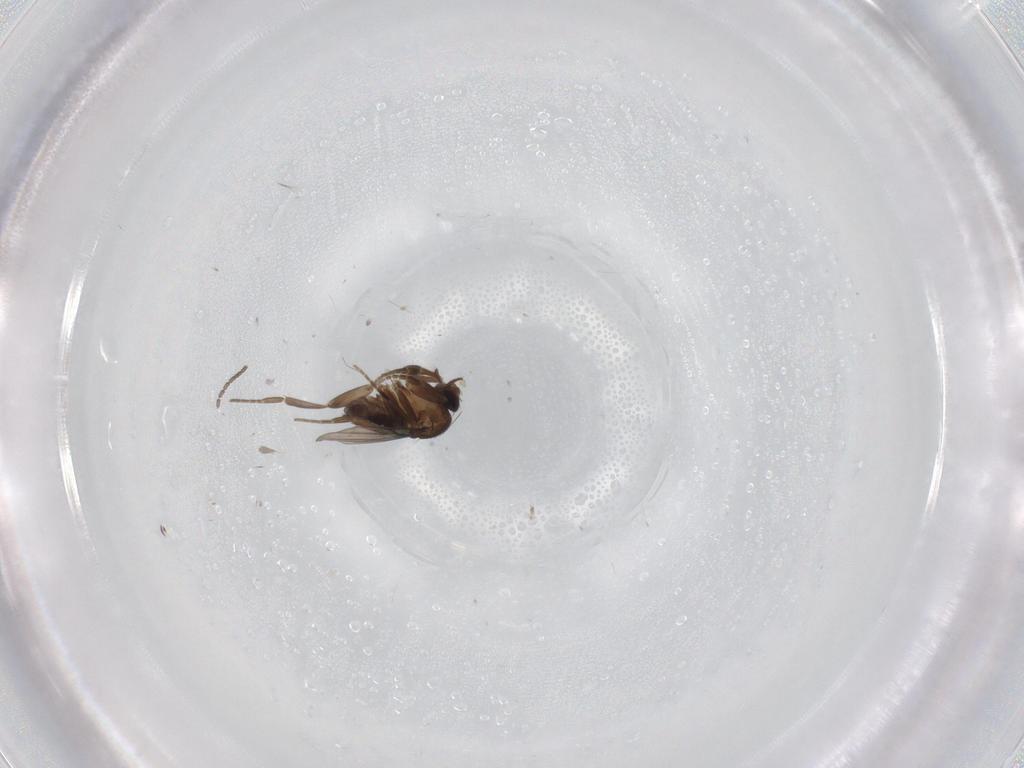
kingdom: Animalia
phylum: Arthropoda
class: Insecta
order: Diptera
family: Phoridae
